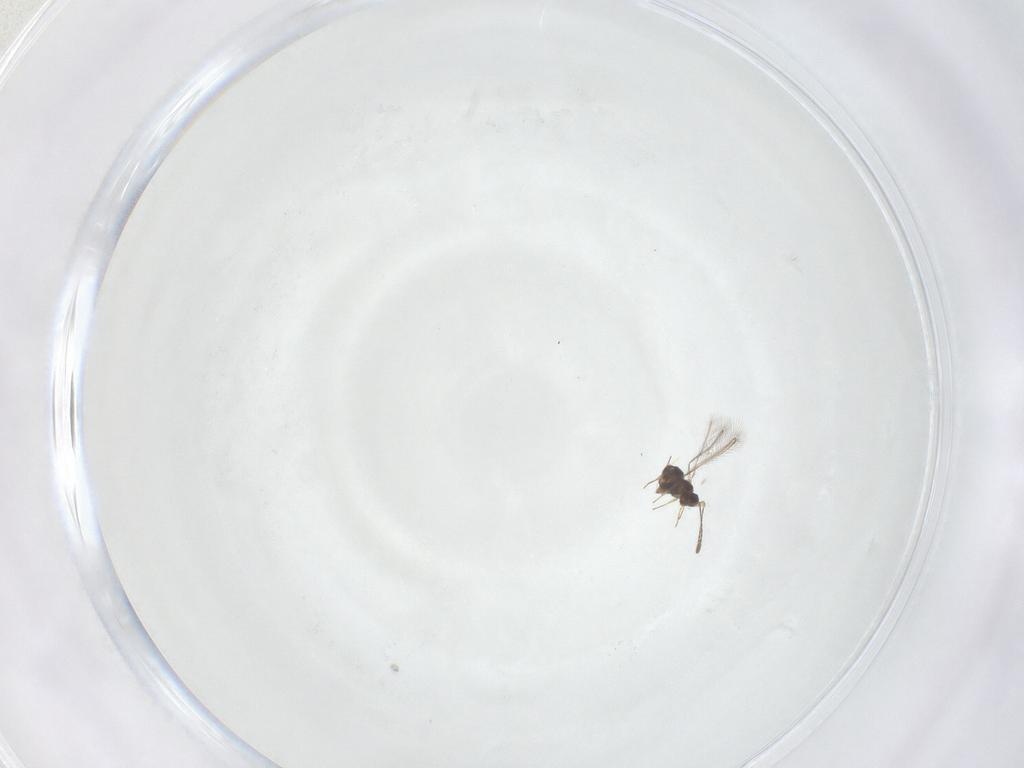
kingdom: Animalia
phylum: Arthropoda
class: Insecta
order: Hymenoptera
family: Mymaridae
